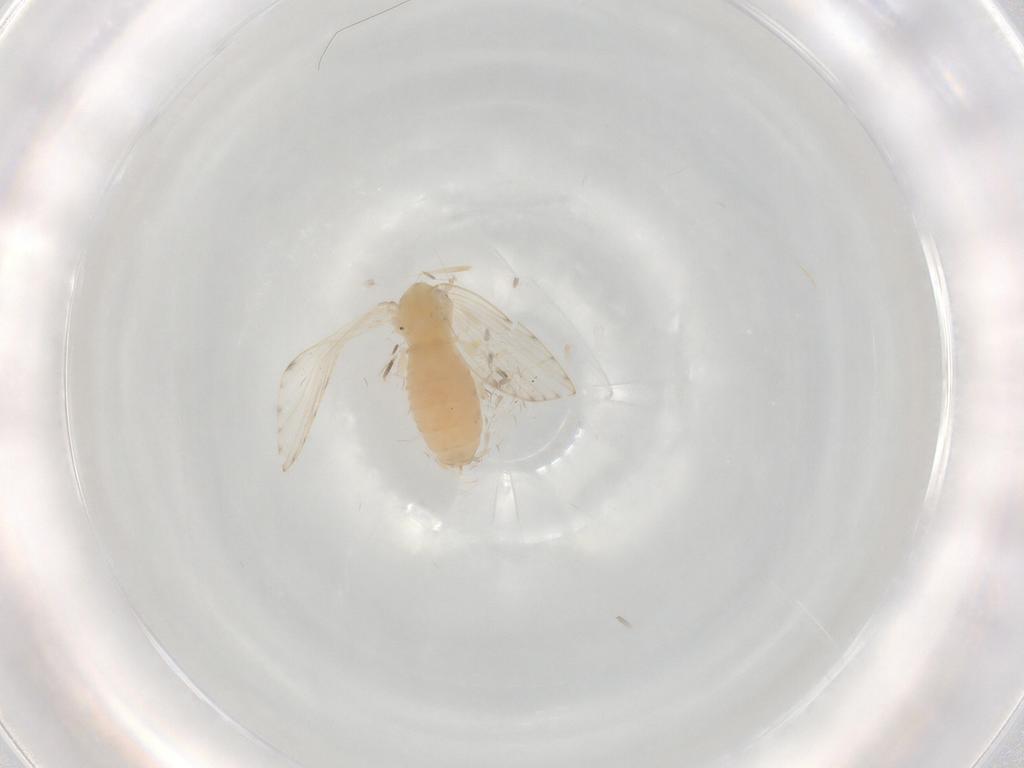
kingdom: Animalia
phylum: Arthropoda
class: Insecta
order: Diptera
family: Psychodidae
